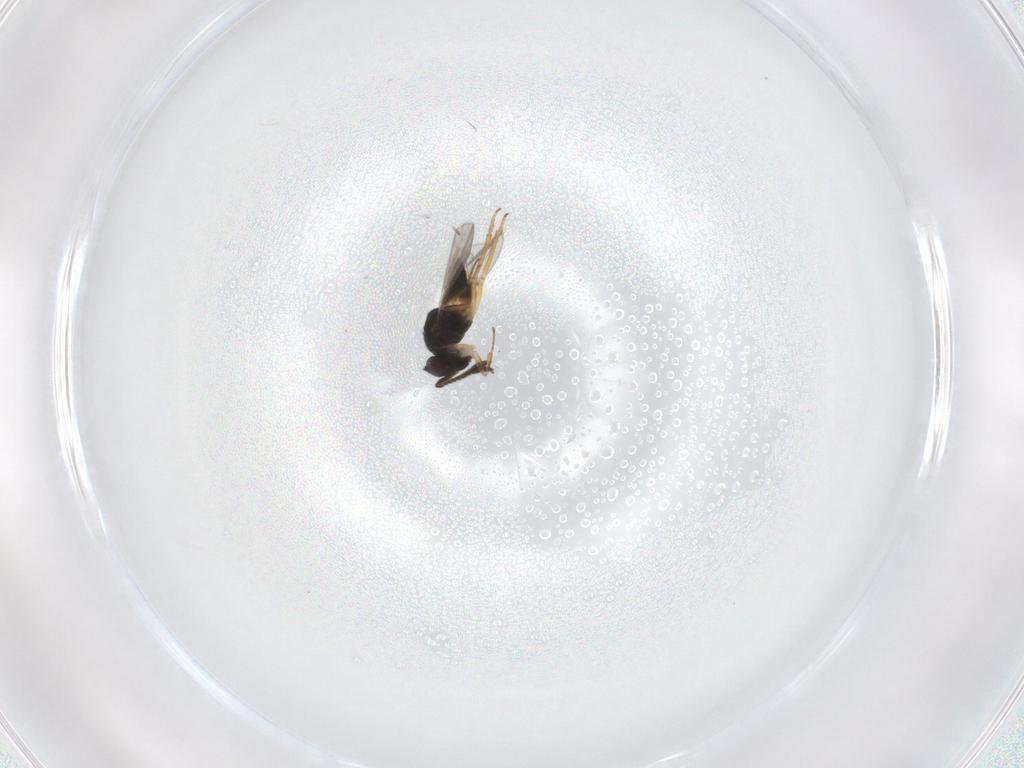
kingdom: Animalia
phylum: Arthropoda
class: Insecta
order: Hymenoptera
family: Encyrtidae
